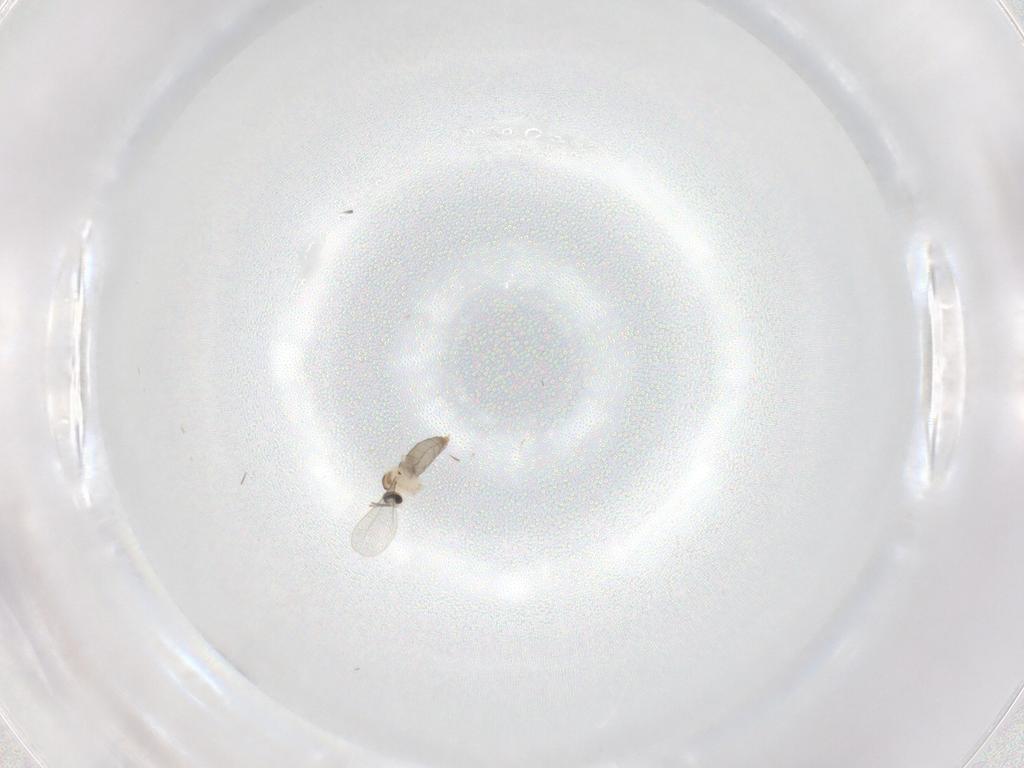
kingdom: Animalia
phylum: Arthropoda
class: Insecta
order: Diptera
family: Cecidomyiidae
